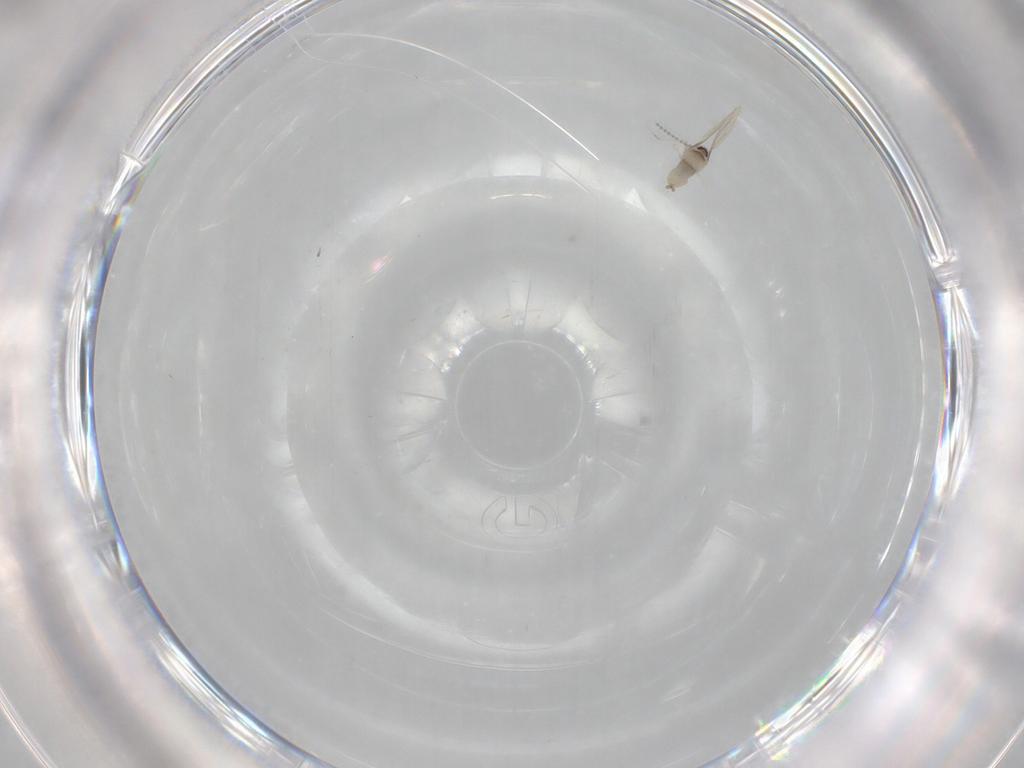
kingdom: Animalia
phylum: Arthropoda
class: Insecta
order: Diptera
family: Cecidomyiidae
